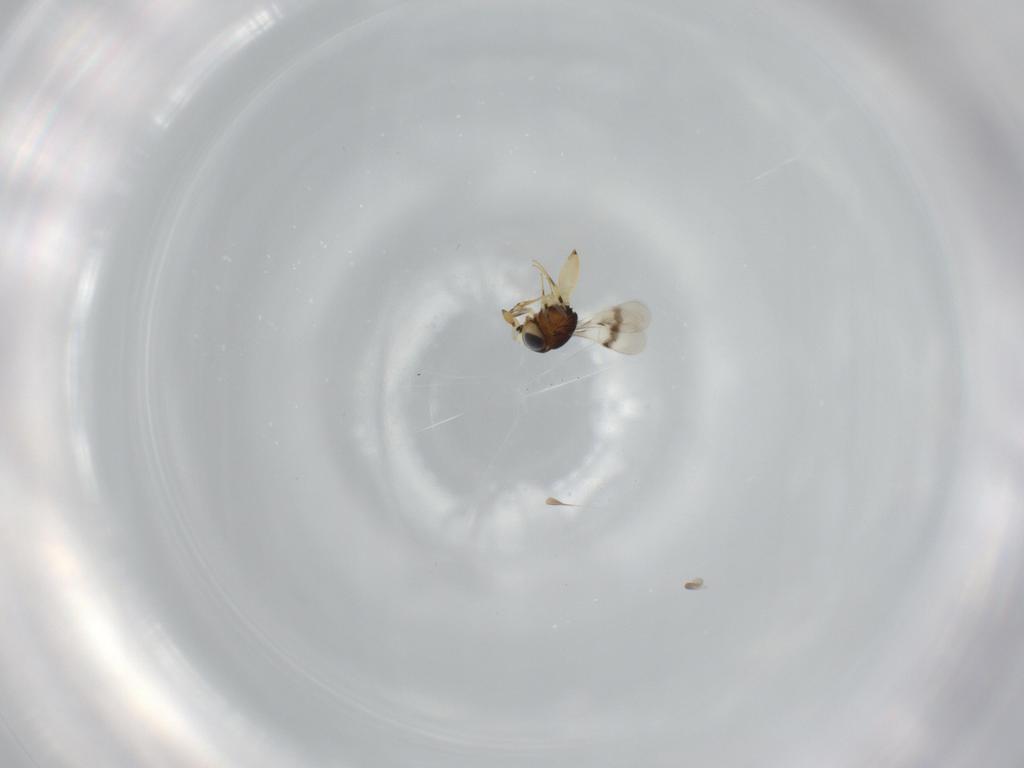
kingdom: Animalia
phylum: Arthropoda
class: Insecta
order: Hymenoptera
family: Scelionidae
